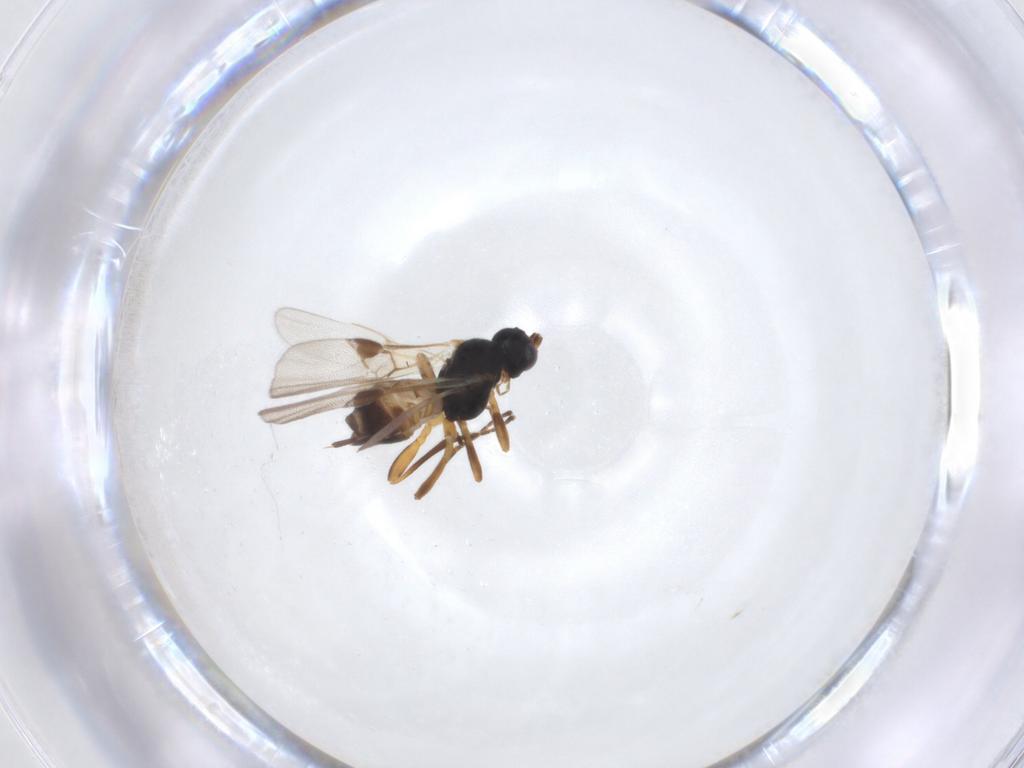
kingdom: Animalia
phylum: Arthropoda
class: Insecta
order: Hymenoptera
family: Braconidae
